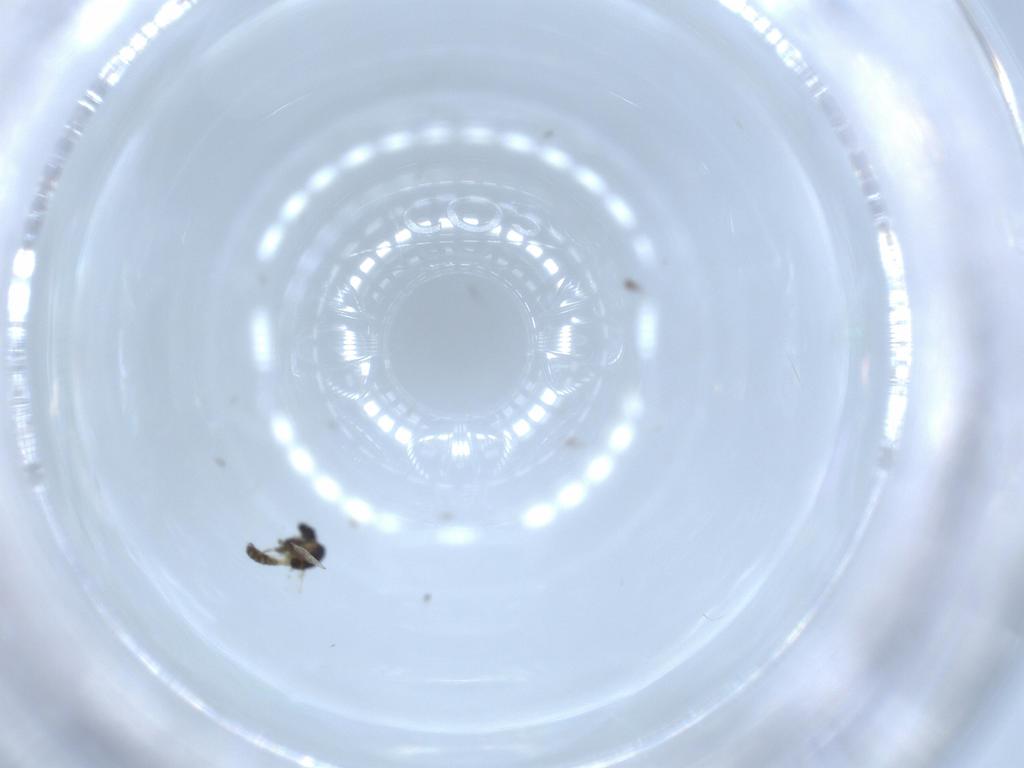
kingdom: Animalia
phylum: Arthropoda
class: Insecta
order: Diptera
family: Chironomidae
